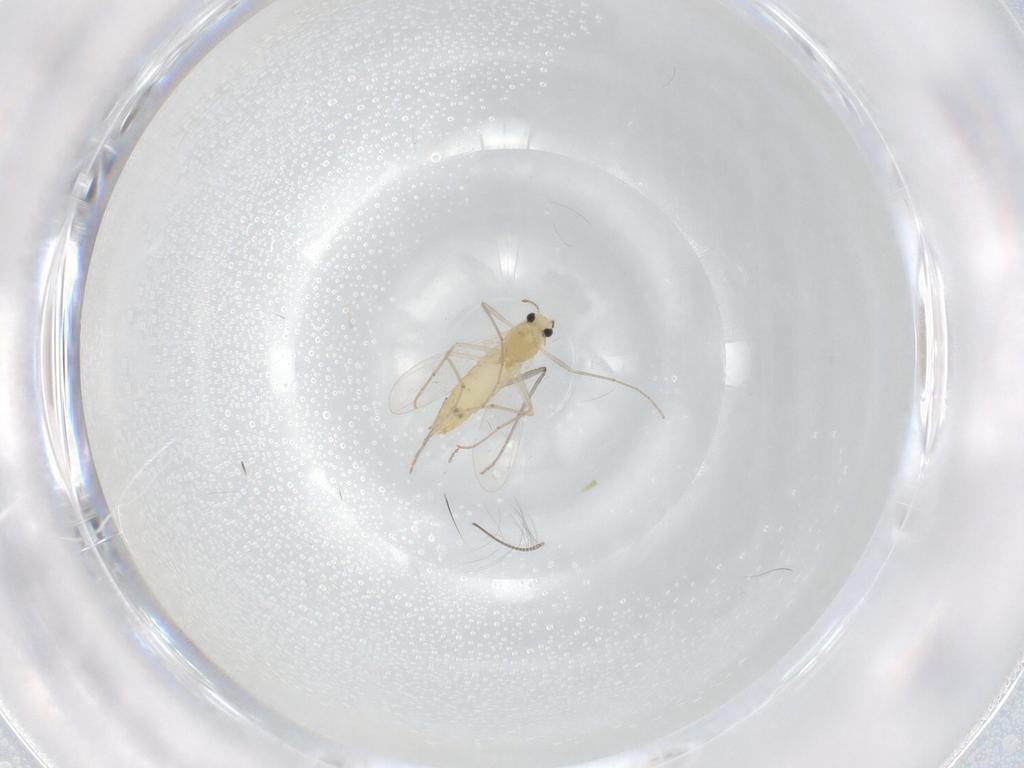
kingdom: Animalia
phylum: Arthropoda
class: Insecta
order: Diptera
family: Chironomidae
